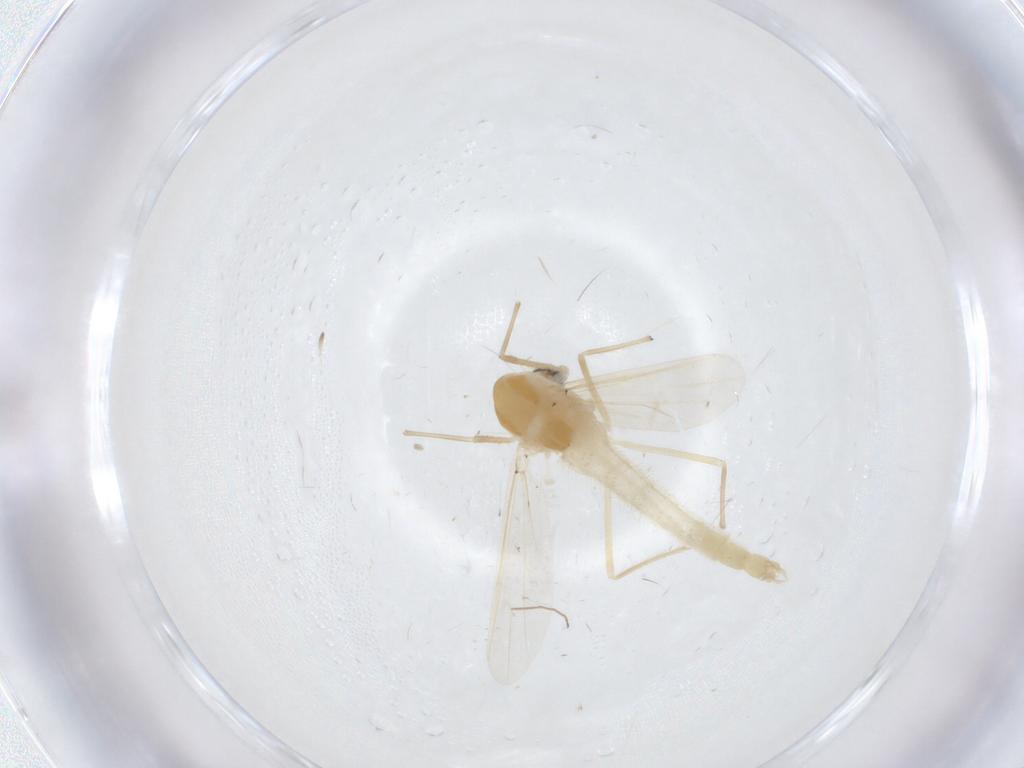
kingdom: Animalia
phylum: Arthropoda
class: Insecta
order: Diptera
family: Chironomidae
